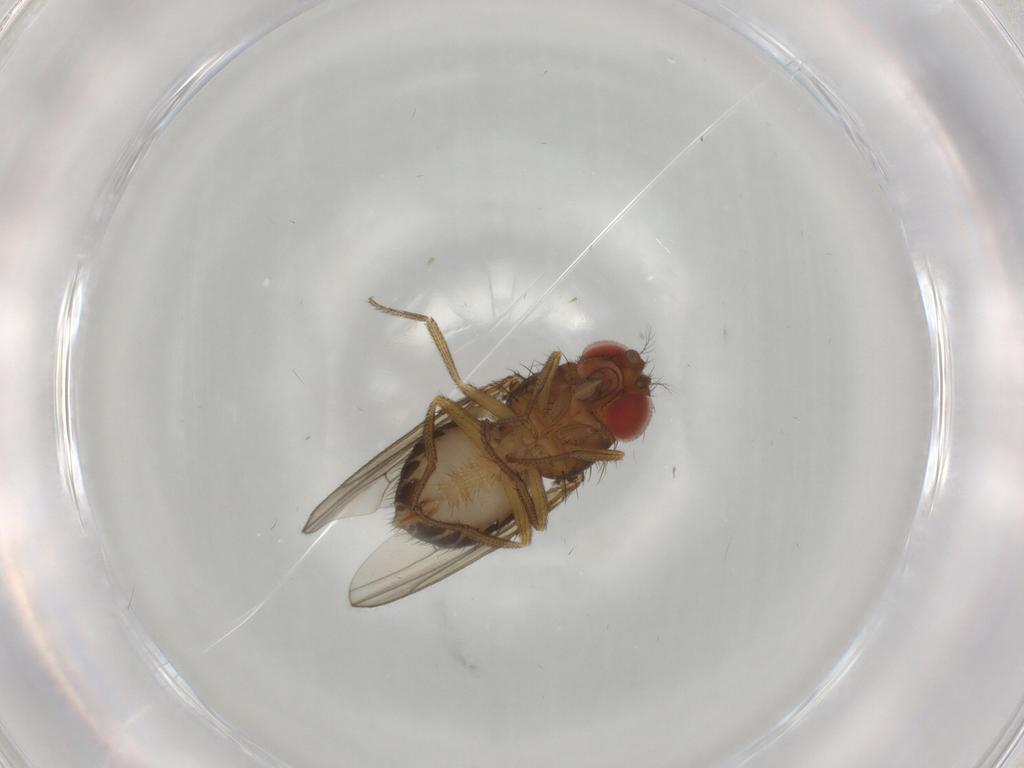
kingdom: Animalia
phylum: Arthropoda
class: Insecta
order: Diptera
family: Drosophilidae
